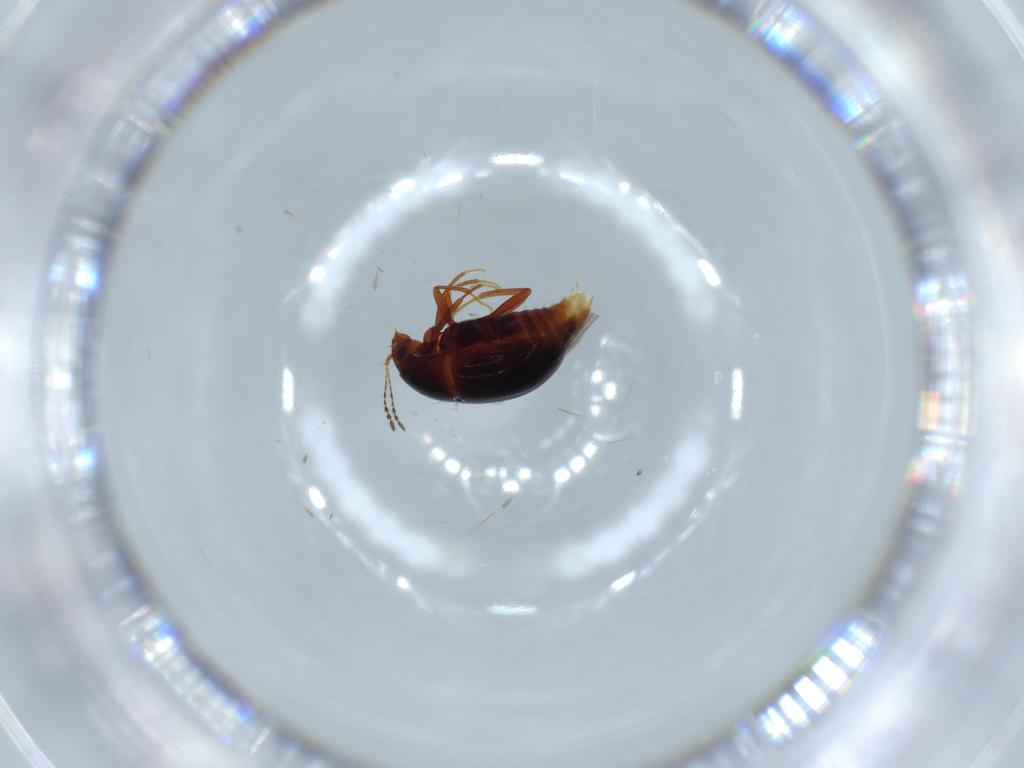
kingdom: Animalia
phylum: Arthropoda
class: Insecta
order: Coleoptera
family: Staphylinidae
